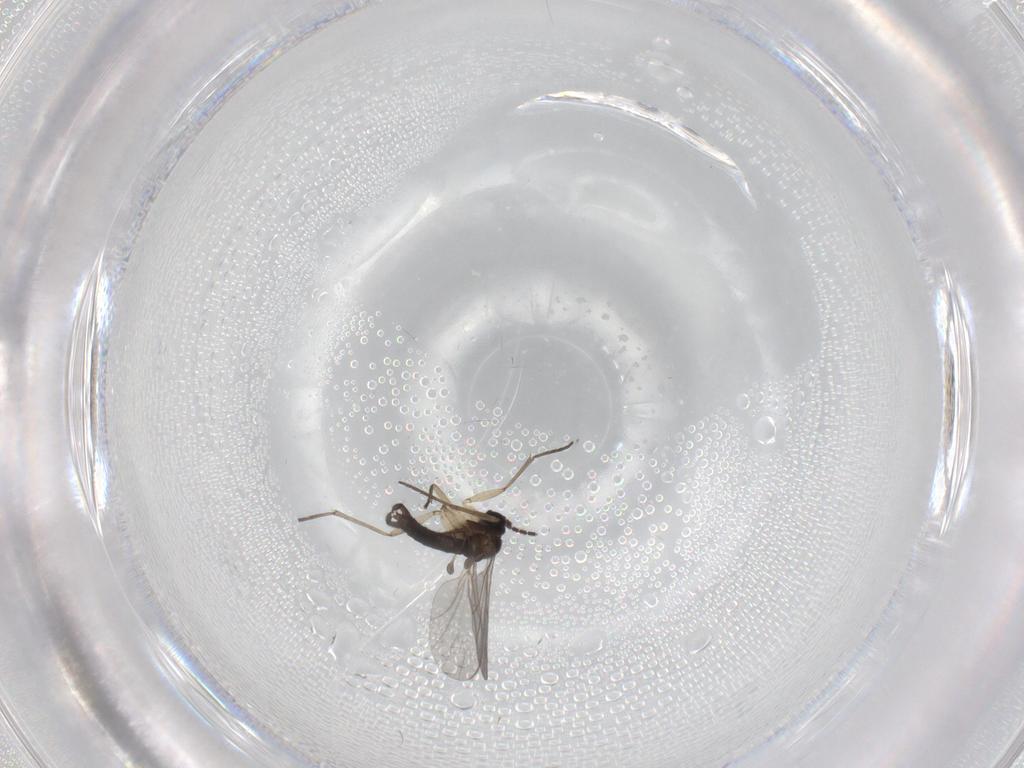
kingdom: Animalia
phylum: Arthropoda
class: Insecta
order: Diptera
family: Sciaridae
